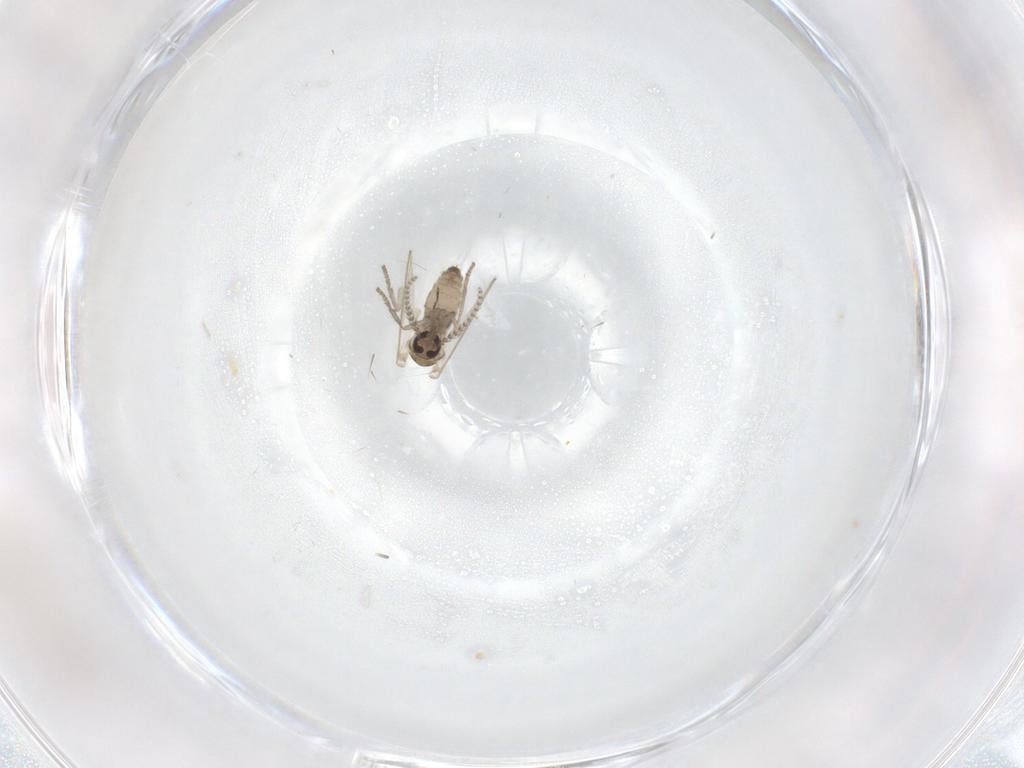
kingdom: Animalia
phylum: Arthropoda
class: Insecta
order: Diptera
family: Psychodidae
